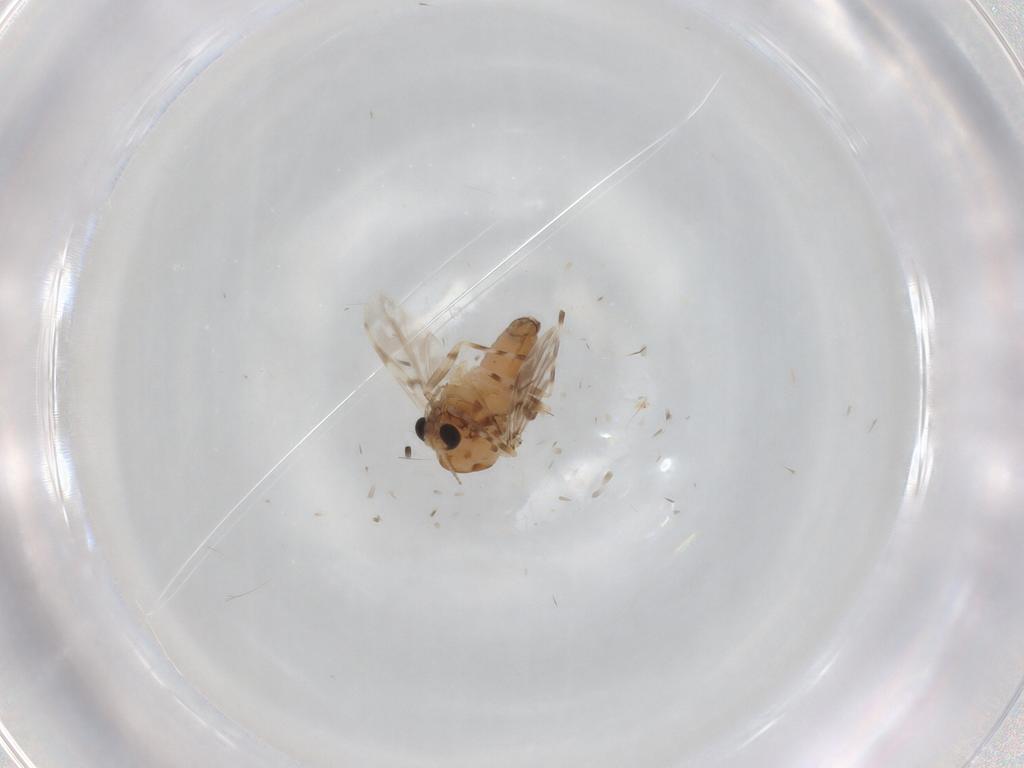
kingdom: Animalia
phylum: Arthropoda
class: Insecta
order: Diptera
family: Chironomidae
